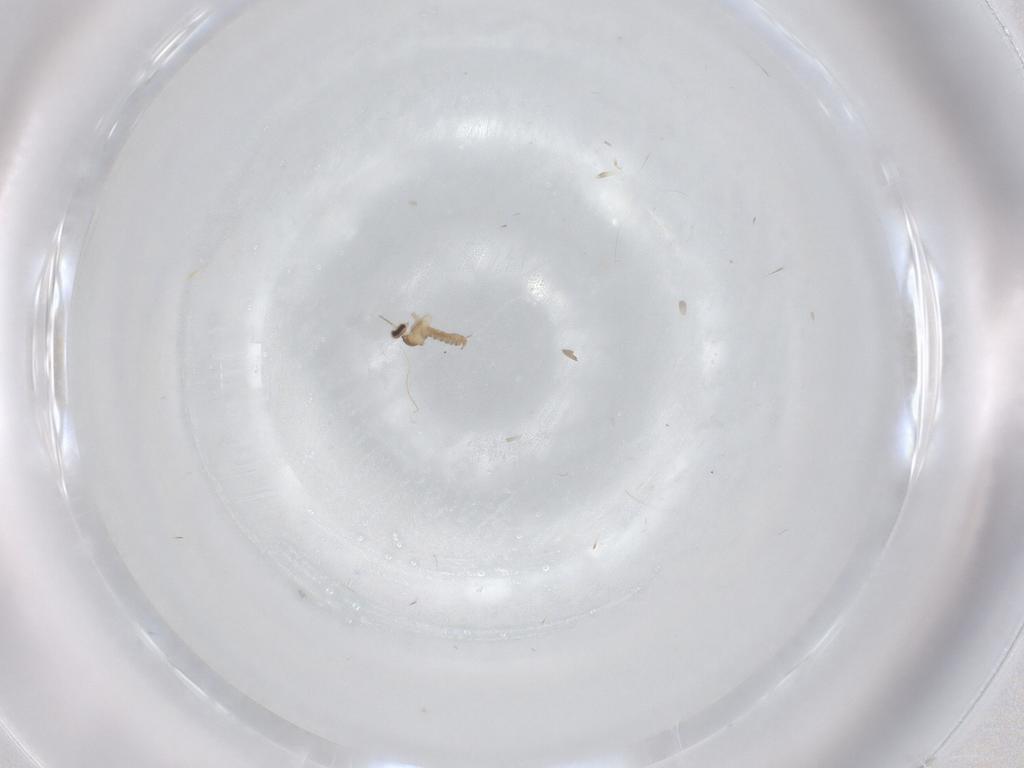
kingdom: Animalia
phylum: Arthropoda
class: Insecta
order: Diptera
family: Cecidomyiidae
